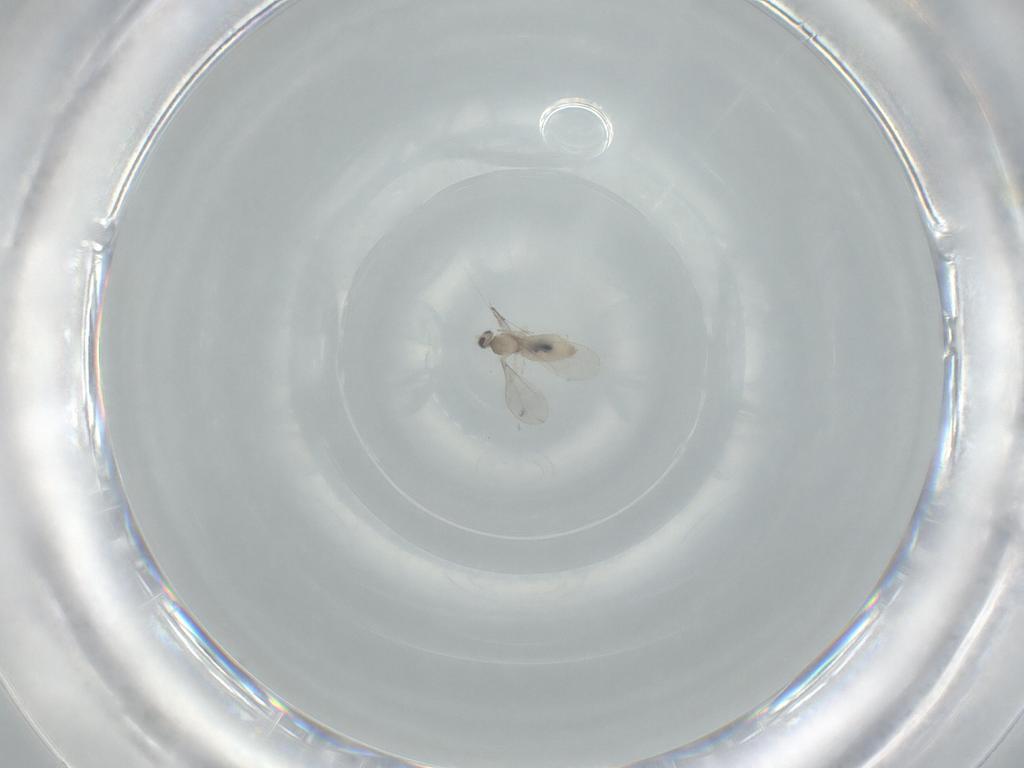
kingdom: Animalia
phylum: Arthropoda
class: Insecta
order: Diptera
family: Cecidomyiidae
